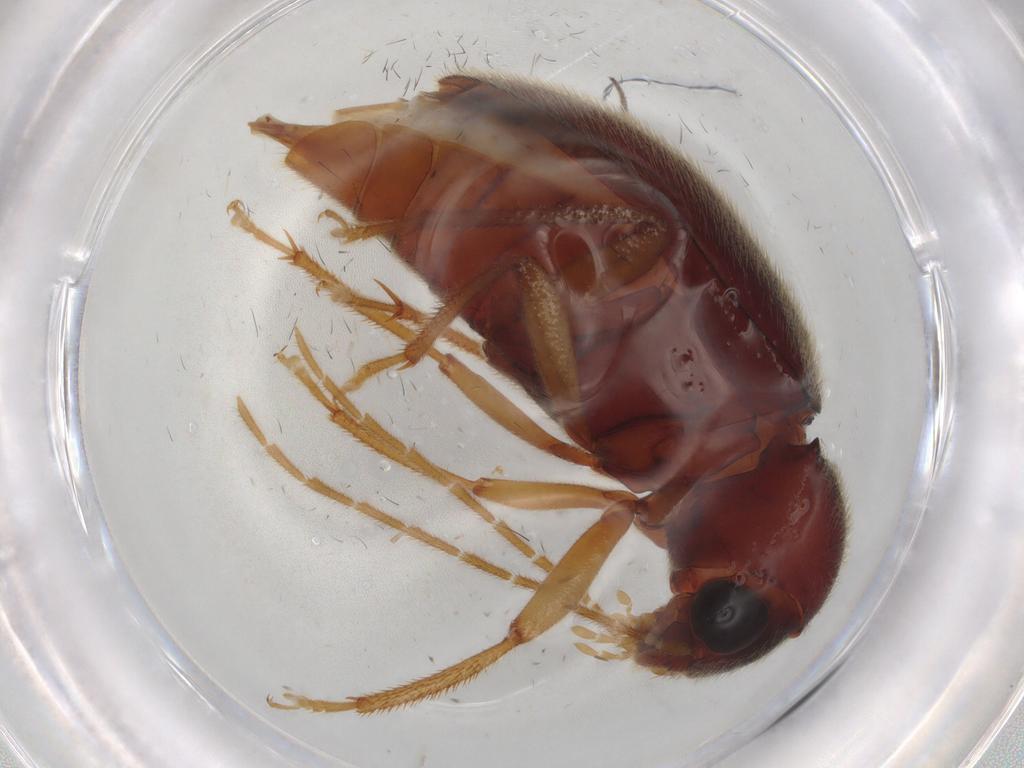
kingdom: Animalia
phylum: Arthropoda
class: Insecta
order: Coleoptera
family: Ptilodactylidae
